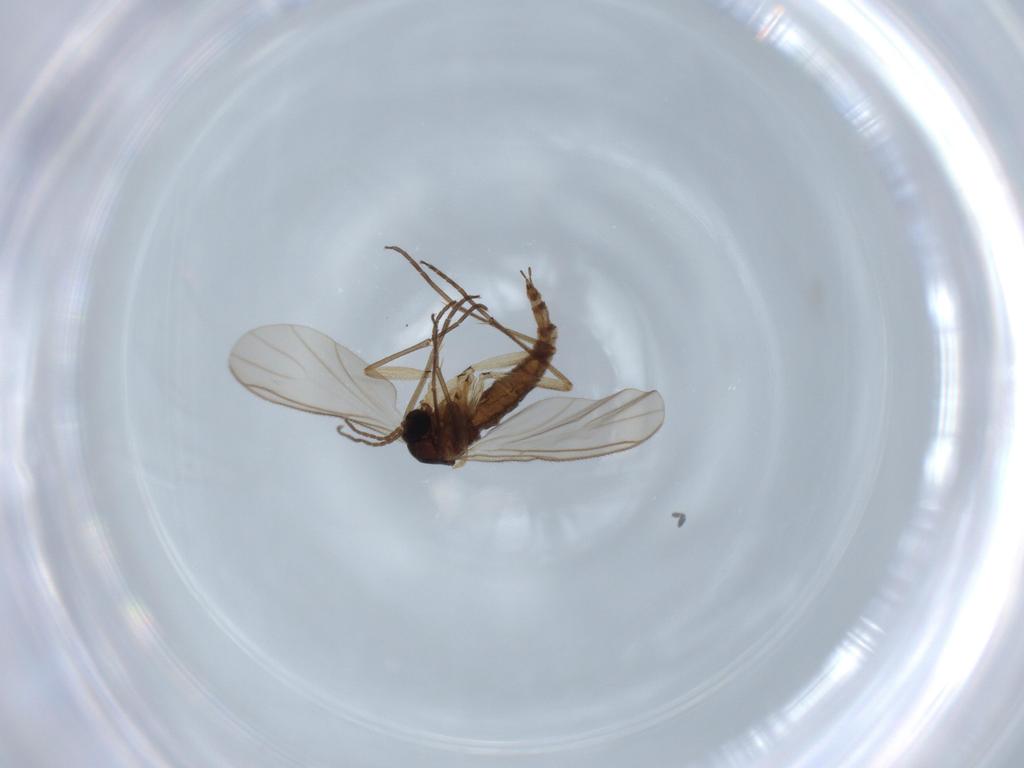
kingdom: Animalia
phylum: Arthropoda
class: Insecta
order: Diptera
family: Sciaridae
